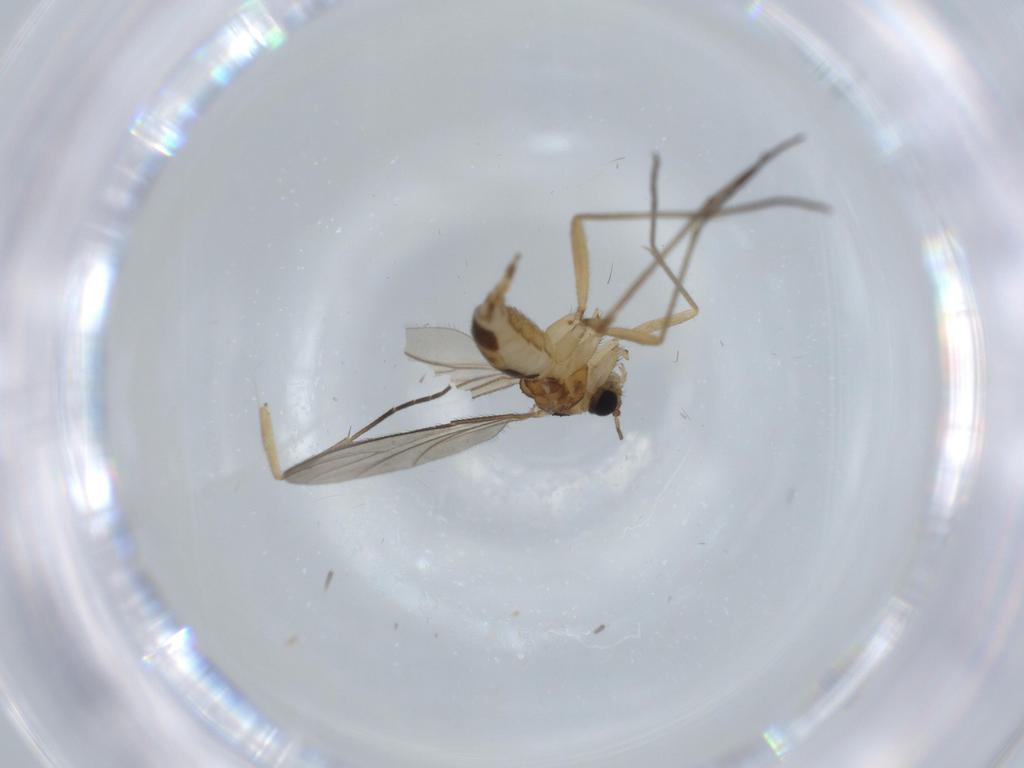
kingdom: Animalia
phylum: Arthropoda
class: Insecta
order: Diptera
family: Sciaridae
